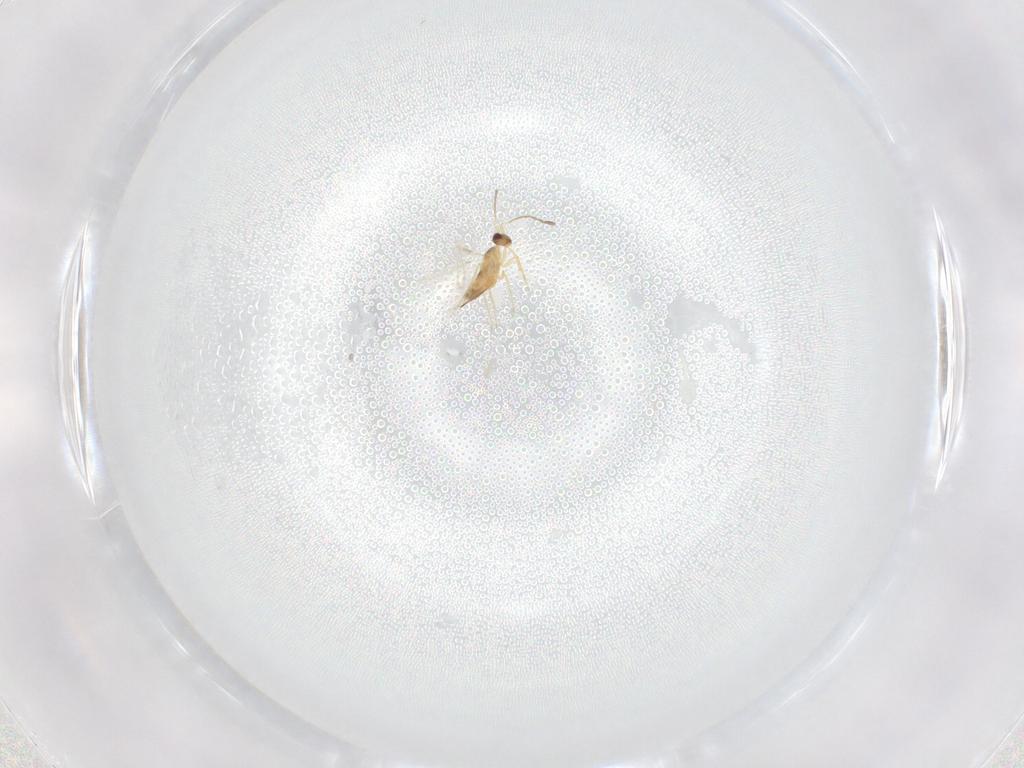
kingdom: Animalia
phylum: Arthropoda
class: Insecta
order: Hymenoptera
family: Mymaridae
